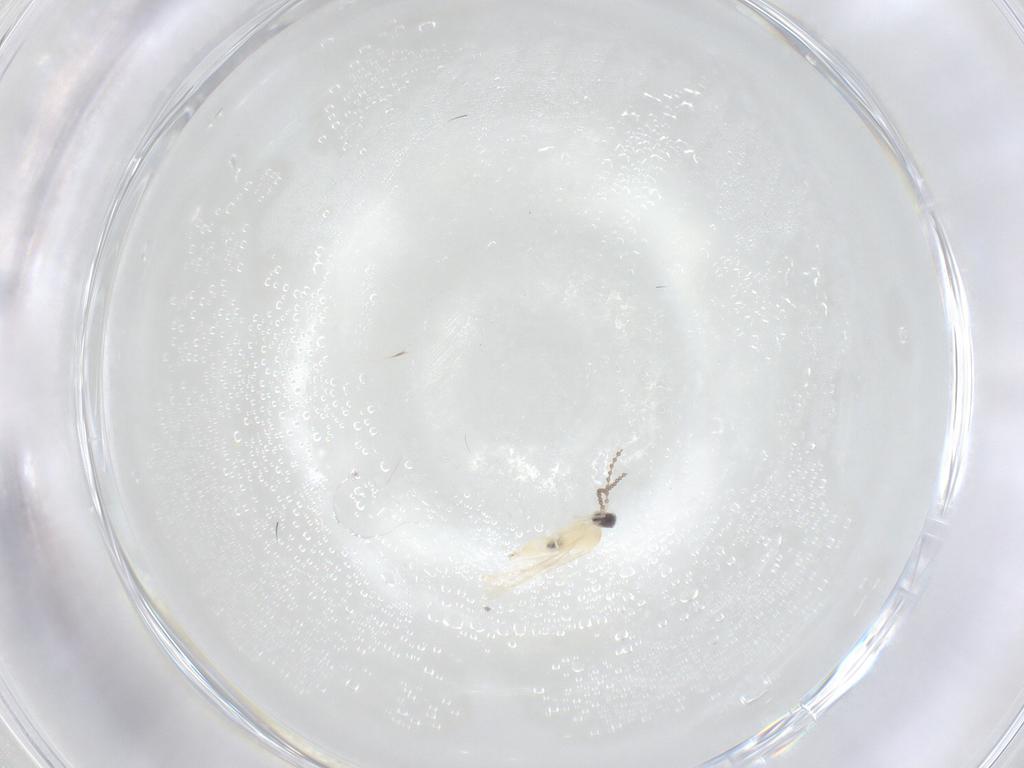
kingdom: Animalia
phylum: Arthropoda
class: Insecta
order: Diptera
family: Cecidomyiidae
